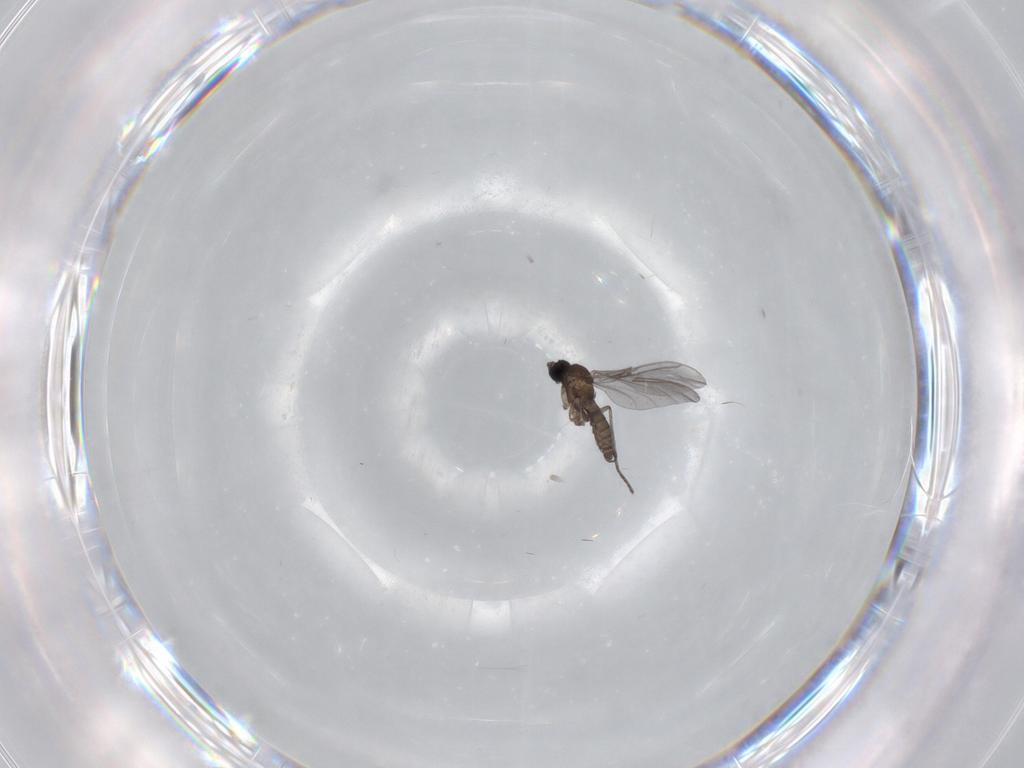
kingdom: Animalia
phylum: Arthropoda
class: Insecta
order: Diptera
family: Sciaridae
